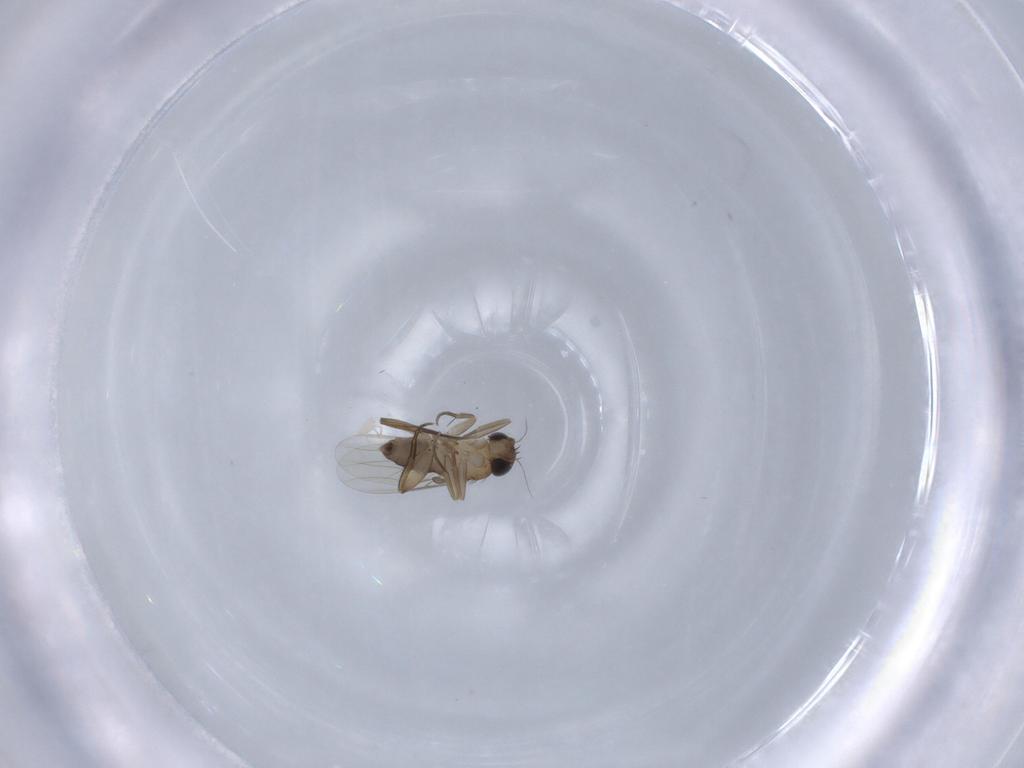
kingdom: Animalia
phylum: Arthropoda
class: Insecta
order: Diptera
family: Phoridae
